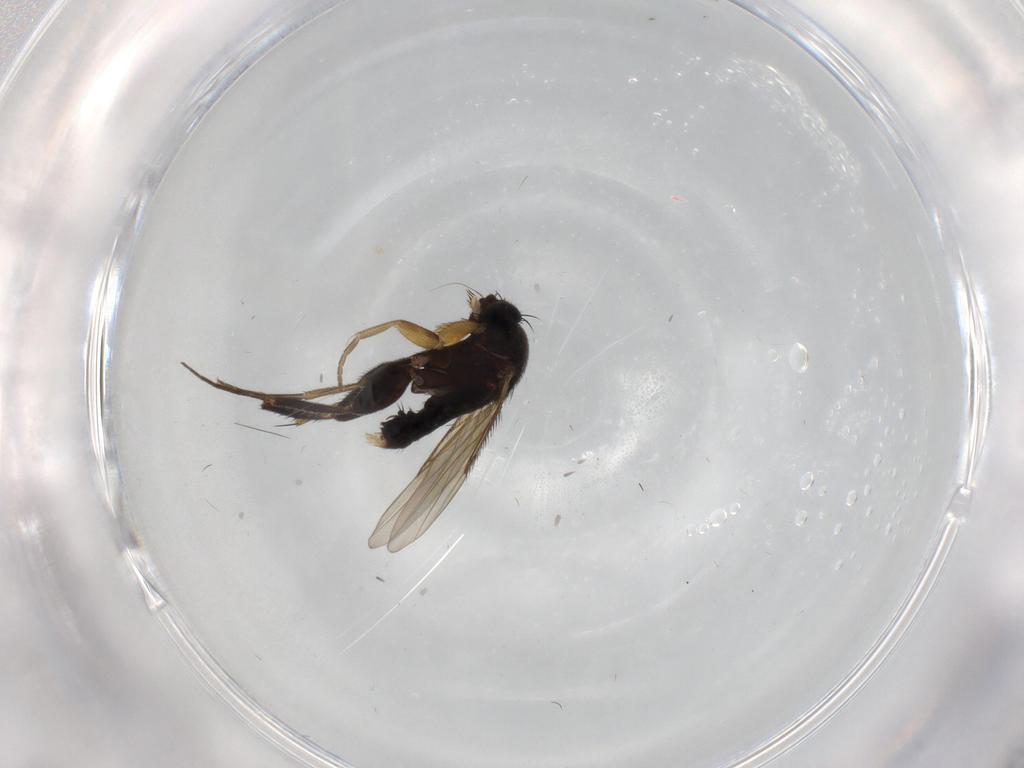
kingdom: Animalia
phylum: Arthropoda
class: Insecta
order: Diptera
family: Phoridae
